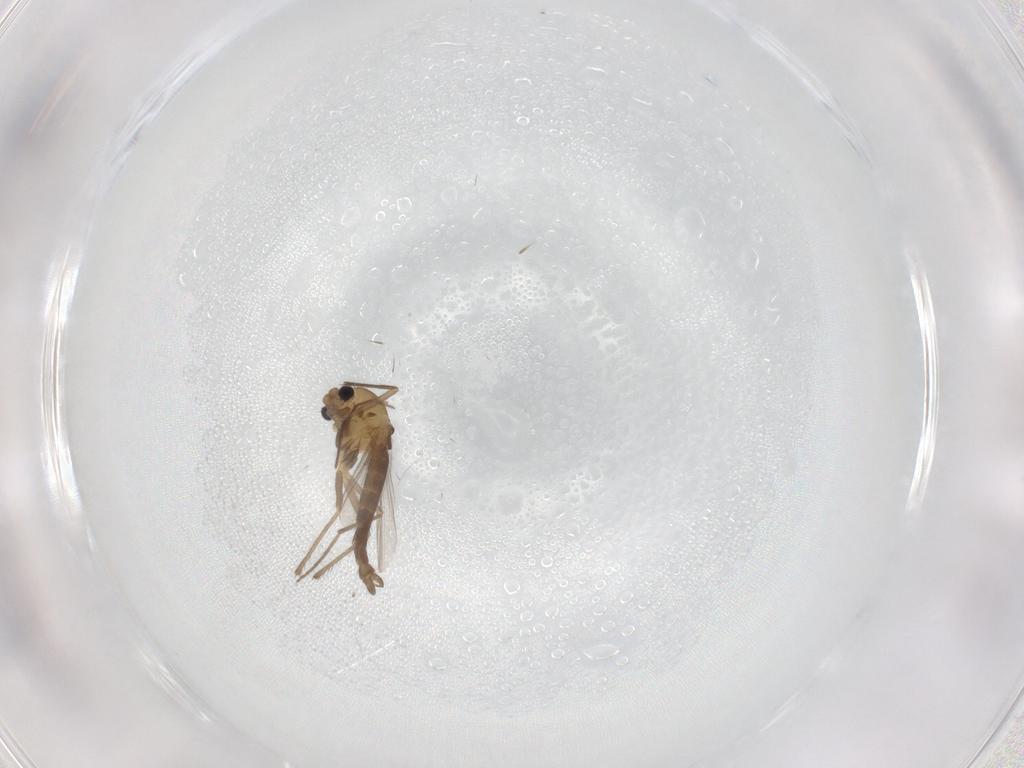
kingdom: Animalia
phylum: Arthropoda
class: Insecta
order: Diptera
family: Chironomidae
